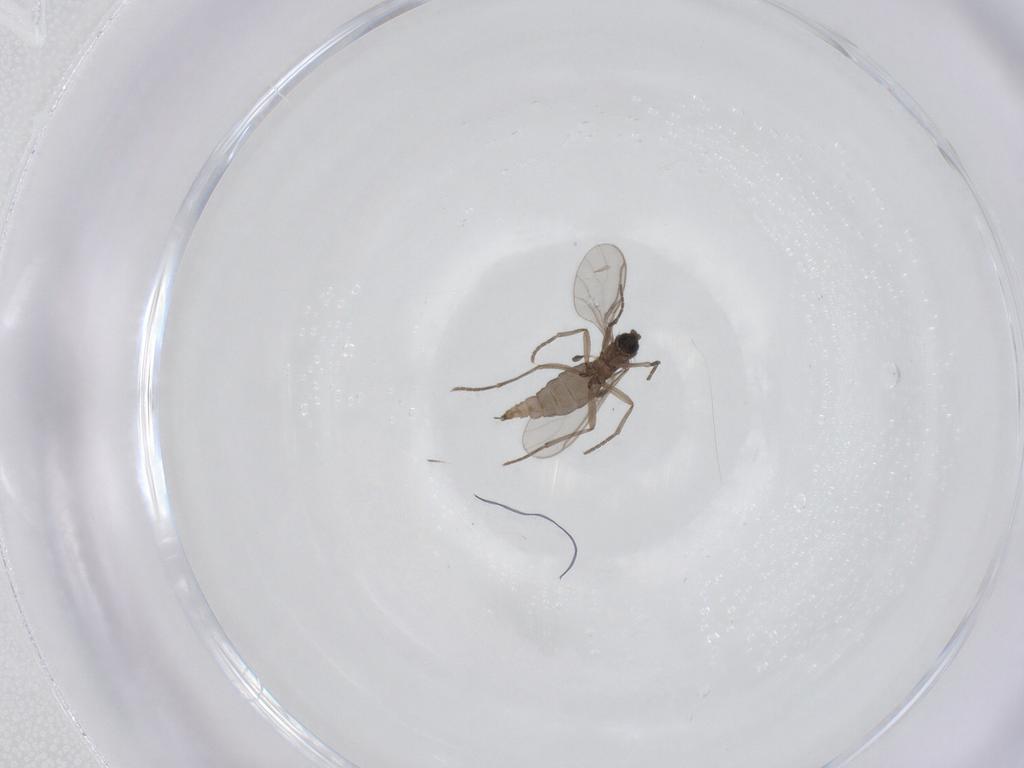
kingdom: Animalia
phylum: Arthropoda
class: Insecta
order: Diptera
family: Sciaridae
